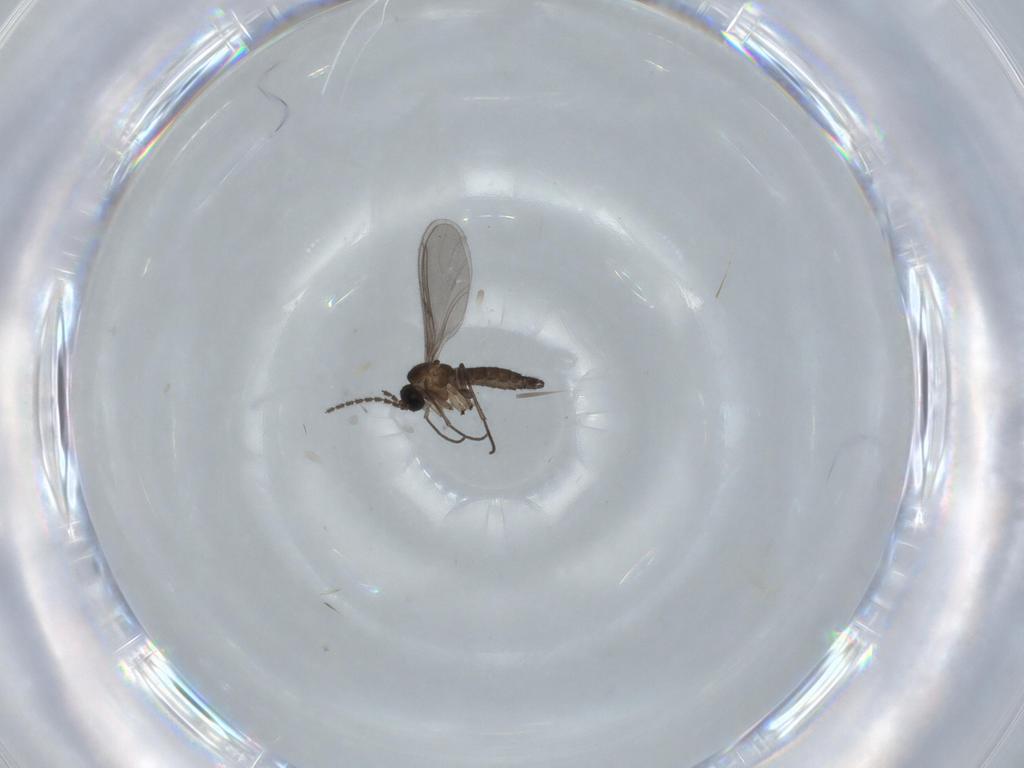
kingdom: Animalia
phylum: Arthropoda
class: Insecta
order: Diptera
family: Sciaridae
